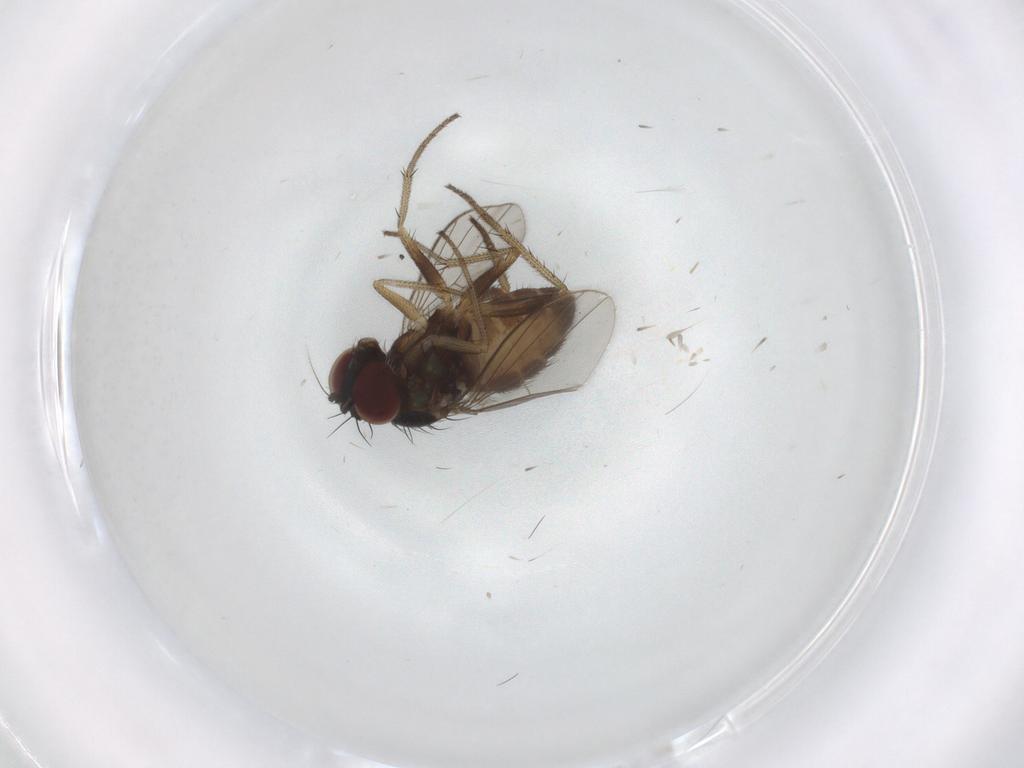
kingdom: Animalia
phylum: Arthropoda
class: Insecta
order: Diptera
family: Dolichopodidae
